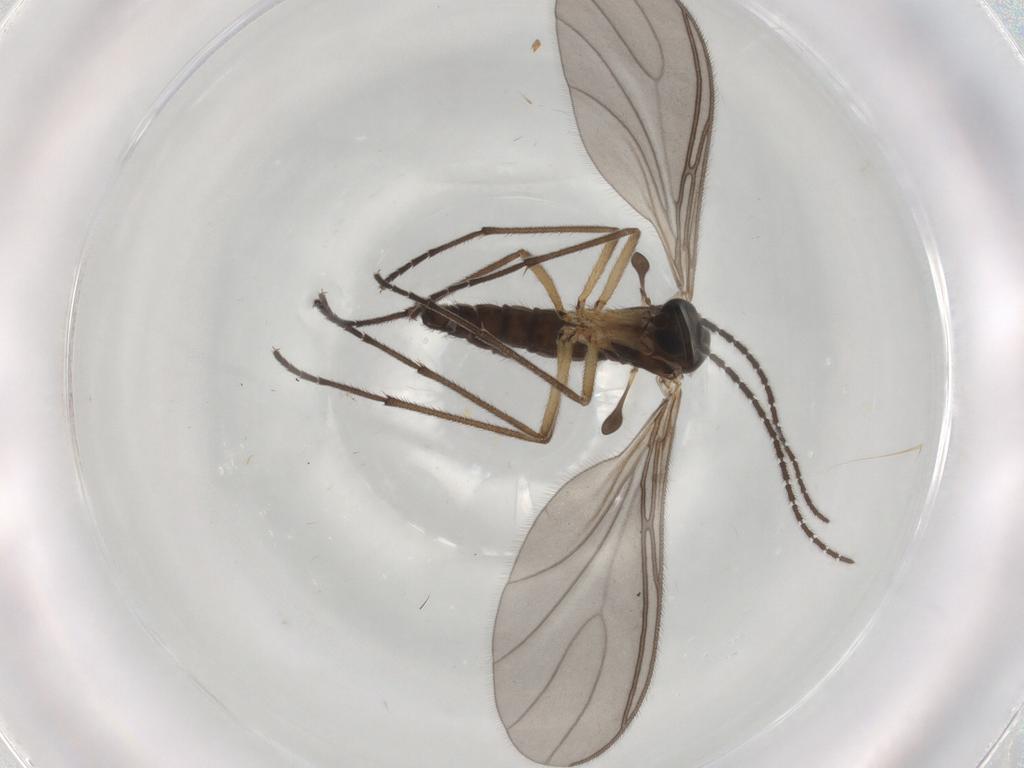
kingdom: Animalia
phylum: Arthropoda
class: Insecta
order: Diptera
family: Sciaridae
